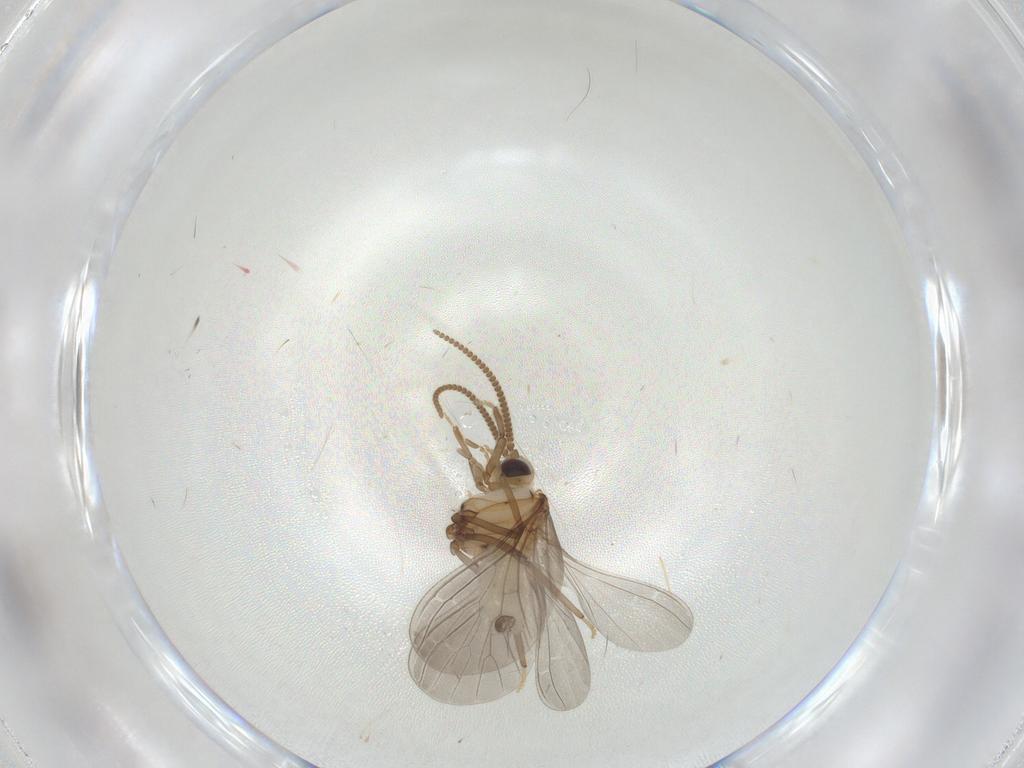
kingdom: Animalia
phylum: Arthropoda
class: Insecta
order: Neuroptera
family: Coniopterygidae
